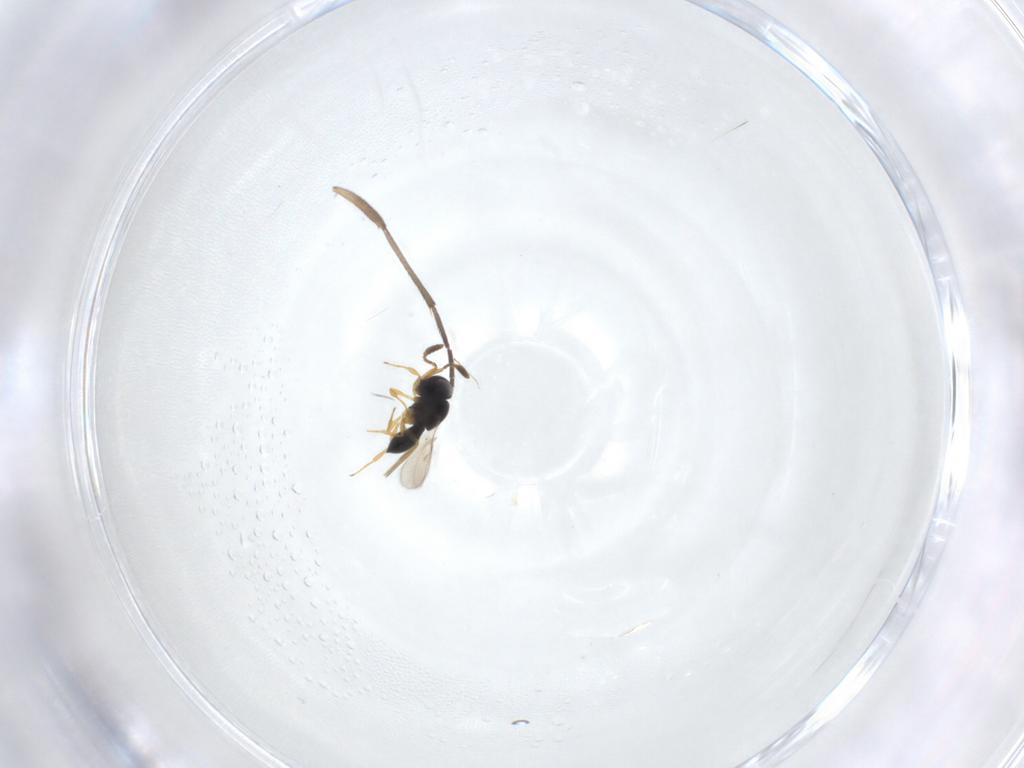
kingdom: Animalia
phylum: Arthropoda
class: Insecta
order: Hymenoptera
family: Scelionidae
